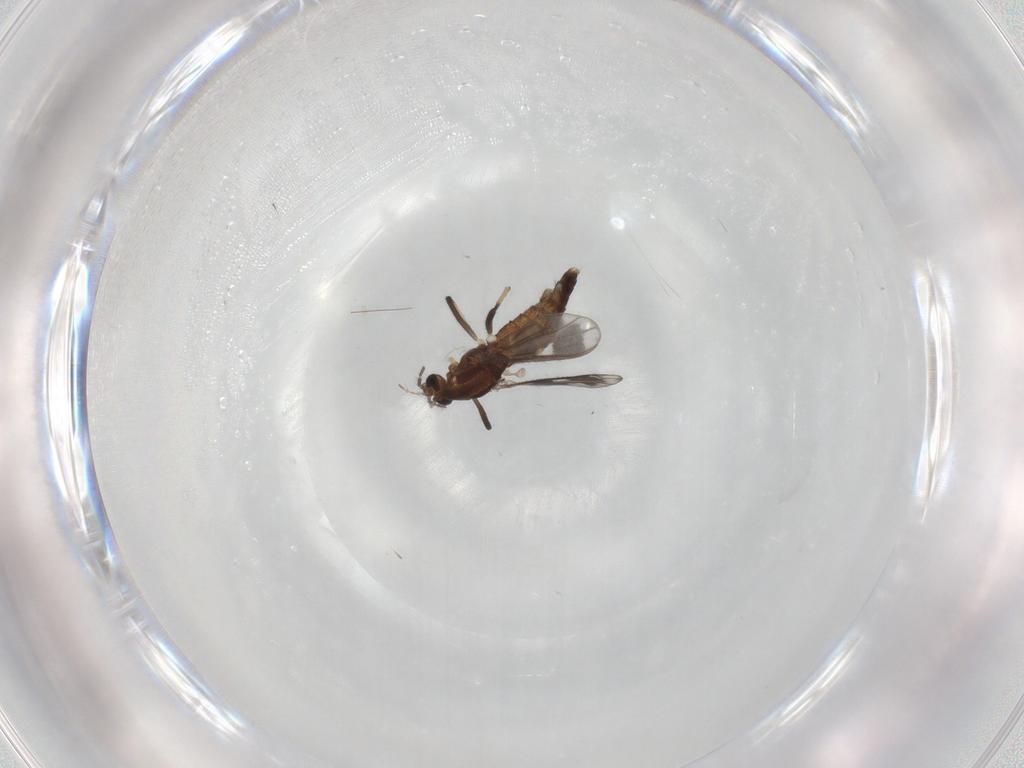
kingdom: Animalia
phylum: Arthropoda
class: Insecta
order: Diptera
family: Chironomidae
